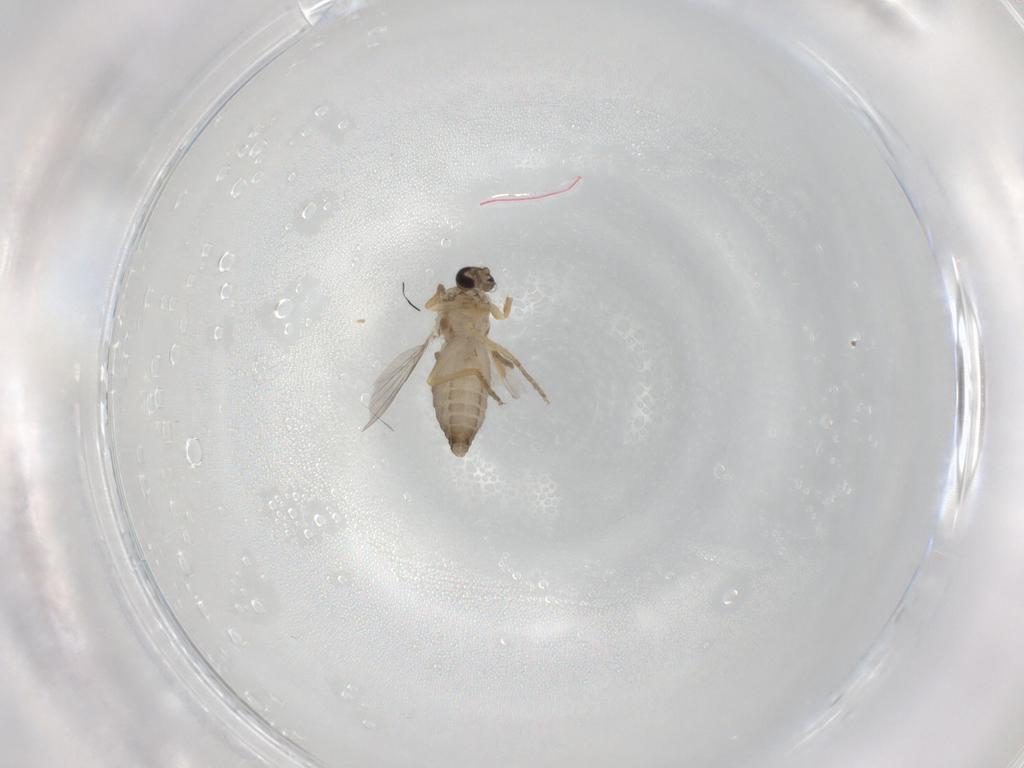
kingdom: Animalia
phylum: Arthropoda
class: Insecta
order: Diptera
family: Ceratopogonidae
